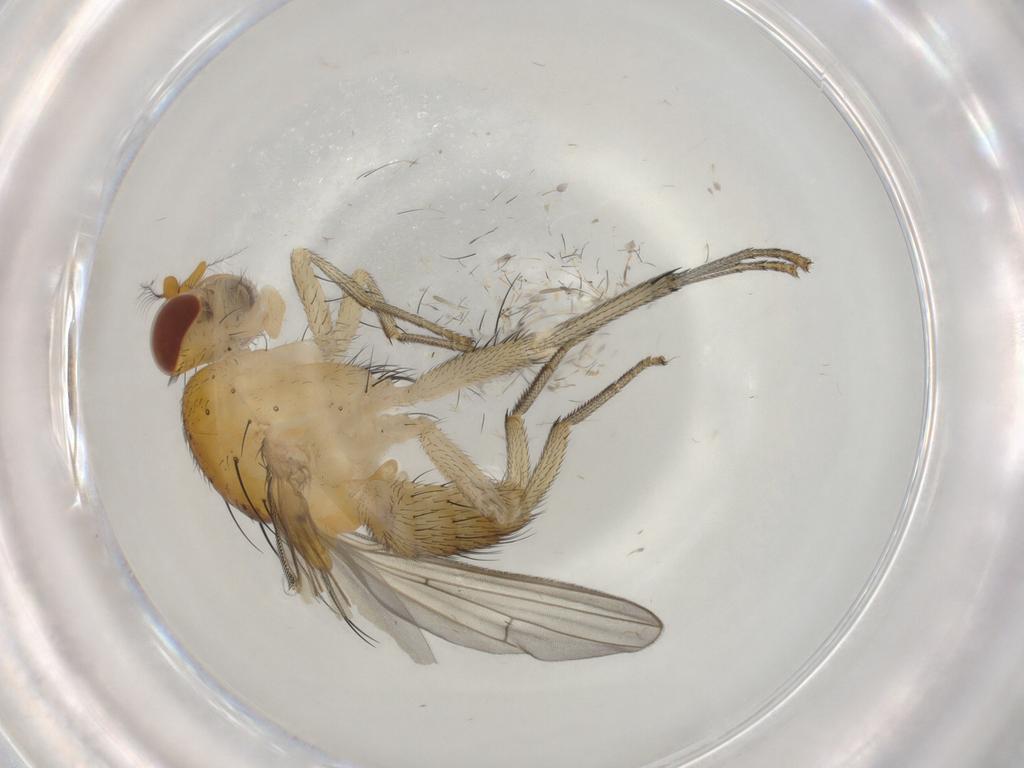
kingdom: Animalia
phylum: Arthropoda
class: Insecta
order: Diptera
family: Lauxaniidae
